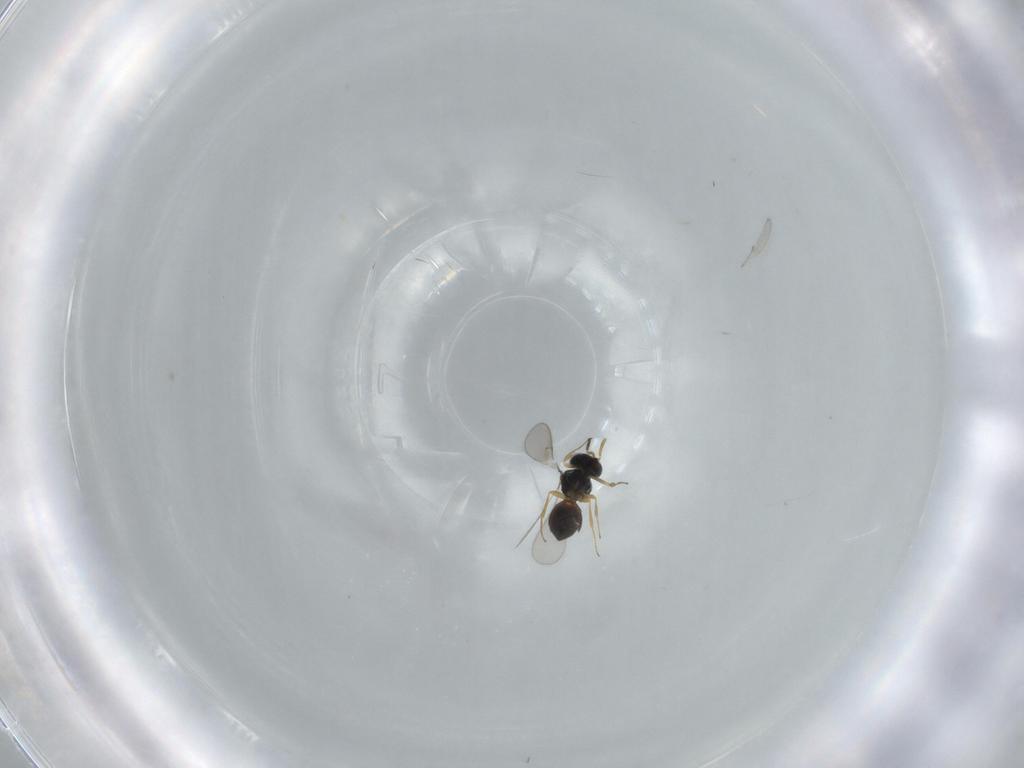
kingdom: Animalia
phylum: Arthropoda
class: Insecta
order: Hymenoptera
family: Scelionidae
